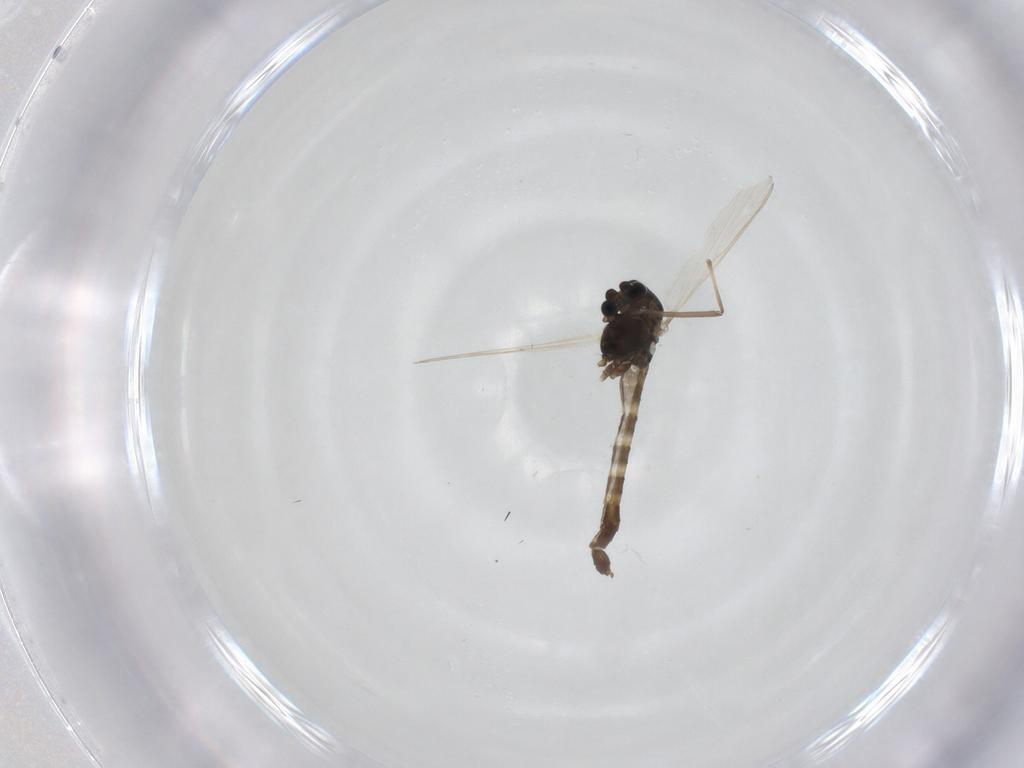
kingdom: Animalia
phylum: Arthropoda
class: Insecta
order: Diptera
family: Chironomidae
